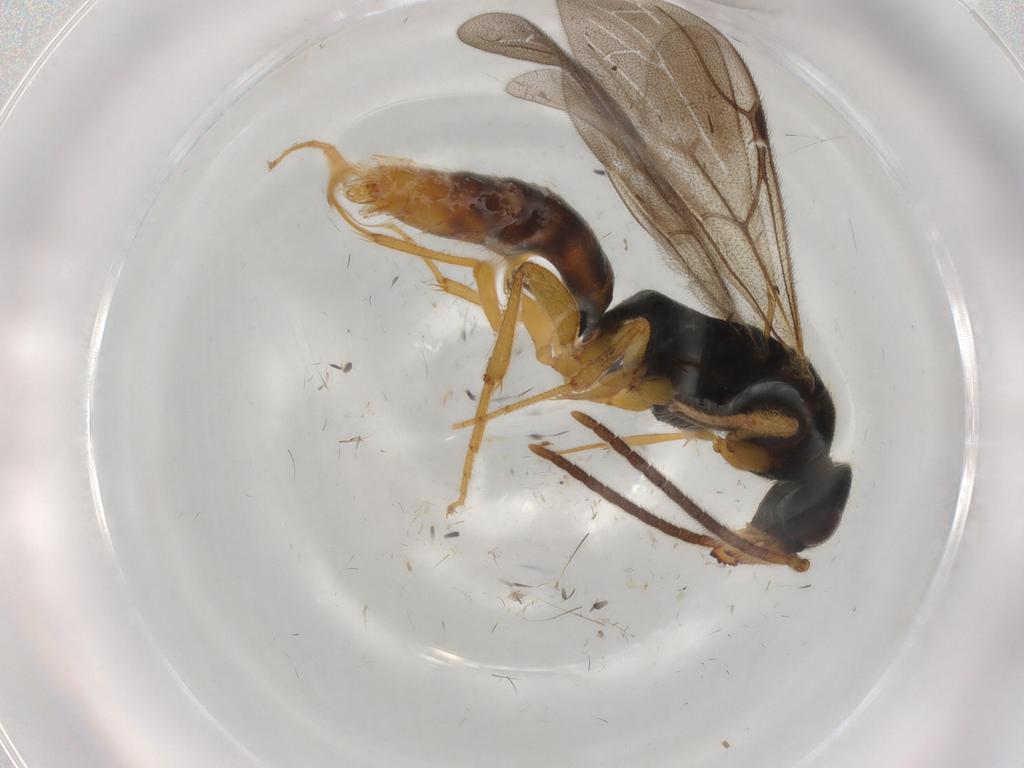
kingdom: Animalia
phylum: Arthropoda
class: Insecta
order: Hymenoptera
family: Bethylidae
